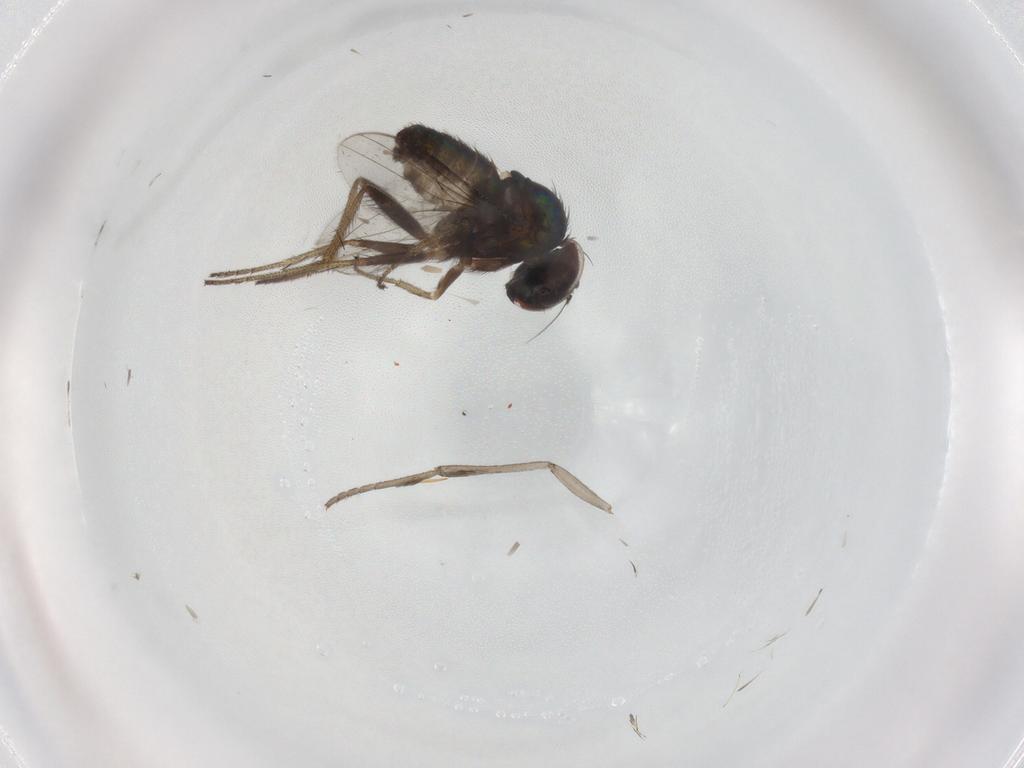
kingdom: Animalia
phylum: Arthropoda
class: Insecta
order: Diptera
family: Psychodidae
